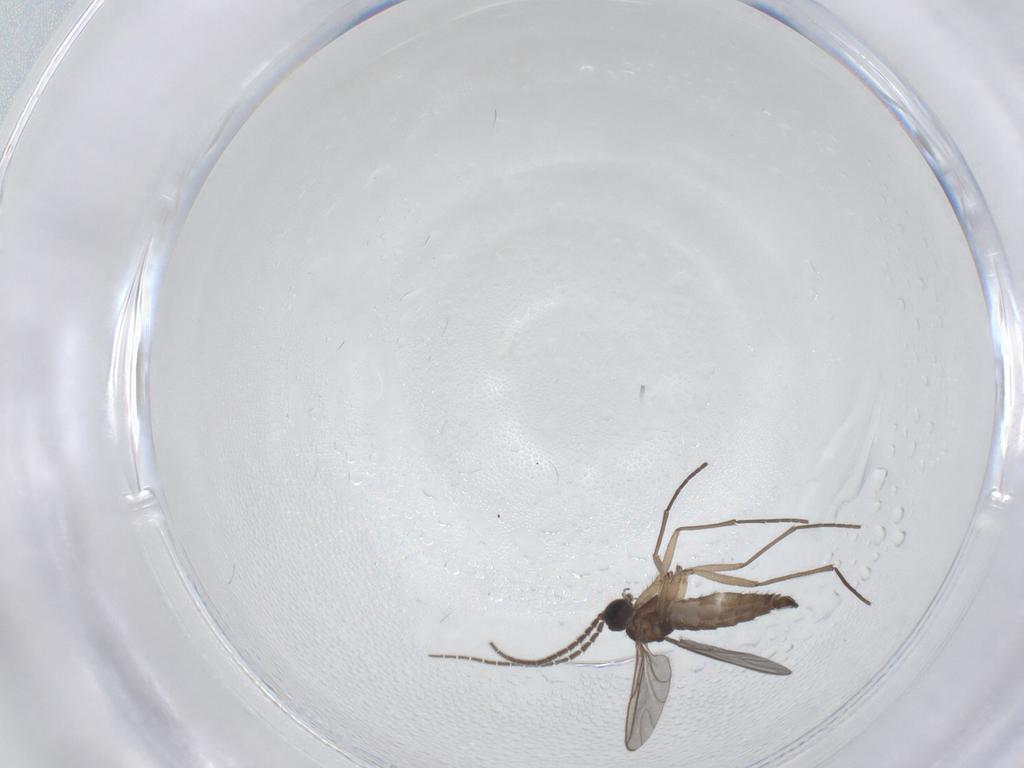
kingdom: Animalia
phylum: Arthropoda
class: Insecta
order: Diptera
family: Sciaridae
